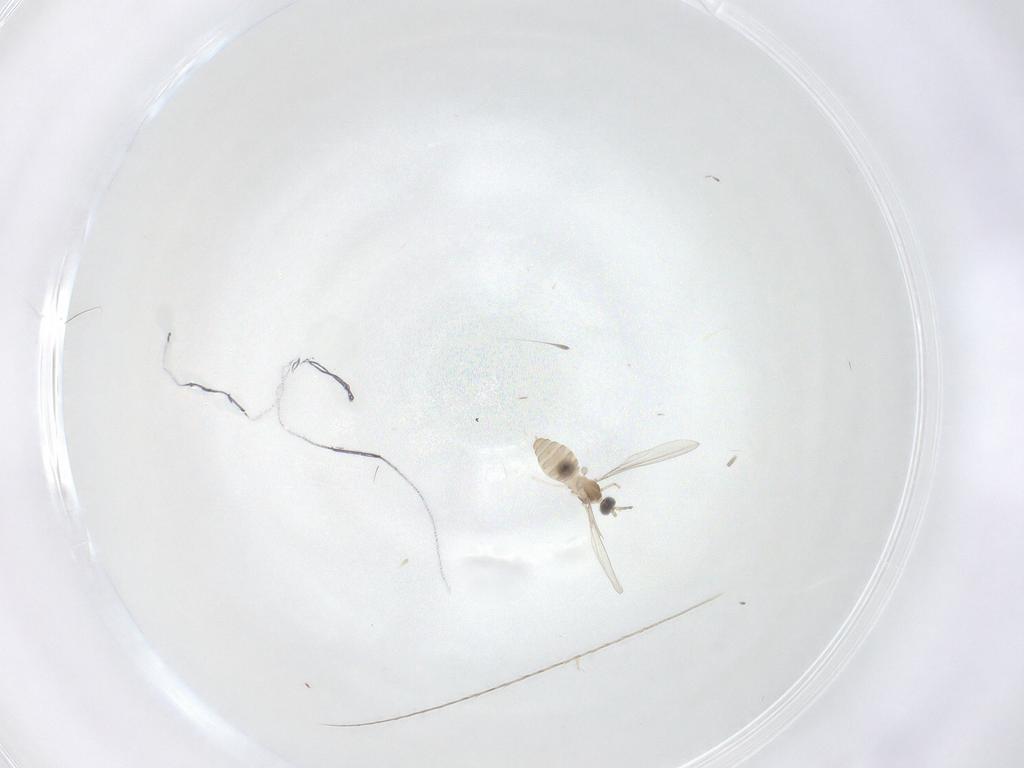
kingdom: Animalia
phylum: Arthropoda
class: Insecta
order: Diptera
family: Cecidomyiidae
